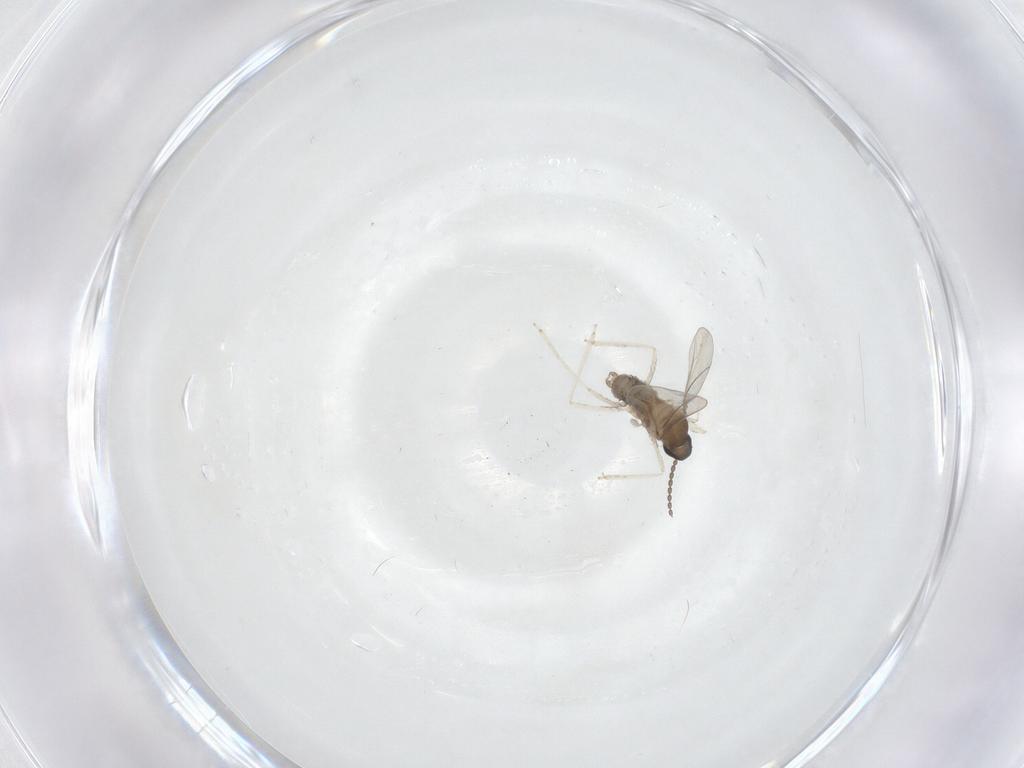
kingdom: Animalia
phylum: Arthropoda
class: Insecta
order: Diptera
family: Cecidomyiidae
